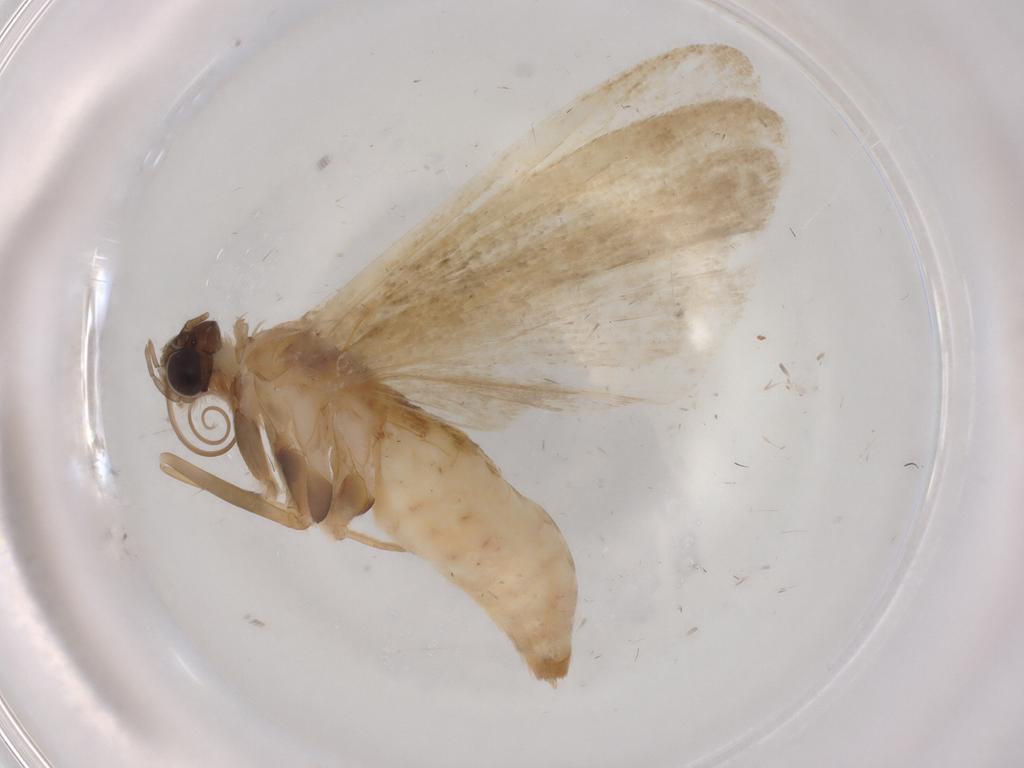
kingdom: Animalia
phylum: Arthropoda
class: Insecta
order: Lepidoptera
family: Noctuidae
